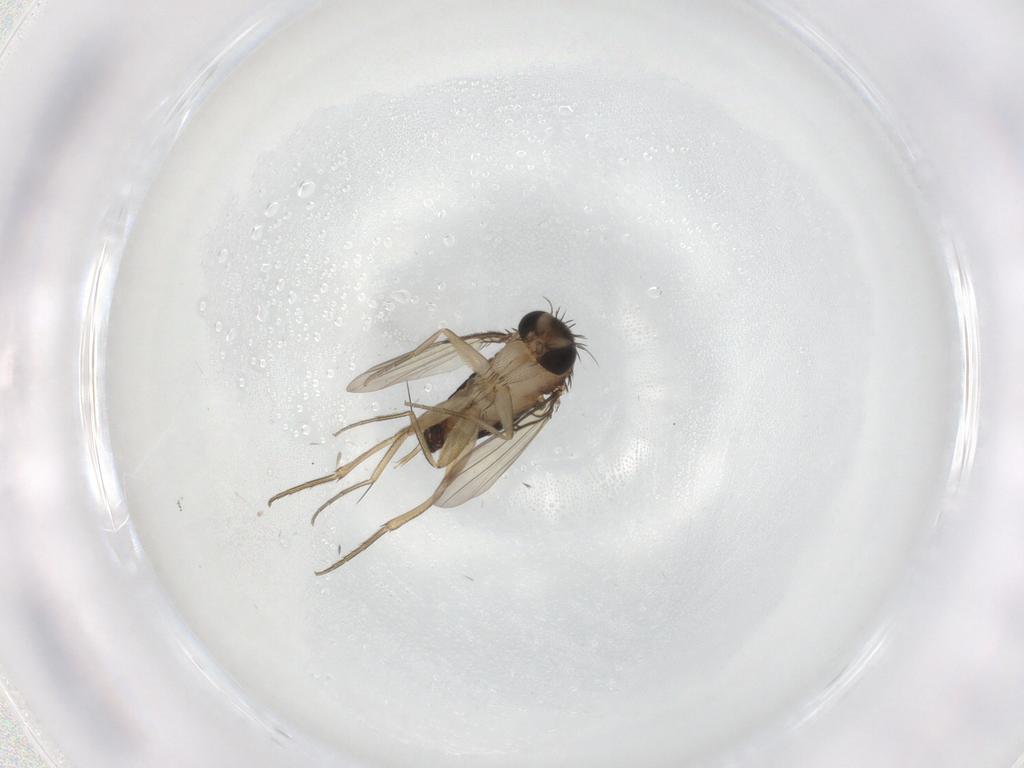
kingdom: Animalia
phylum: Arthropoda
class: Insecta
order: Diptera
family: Phoridae
